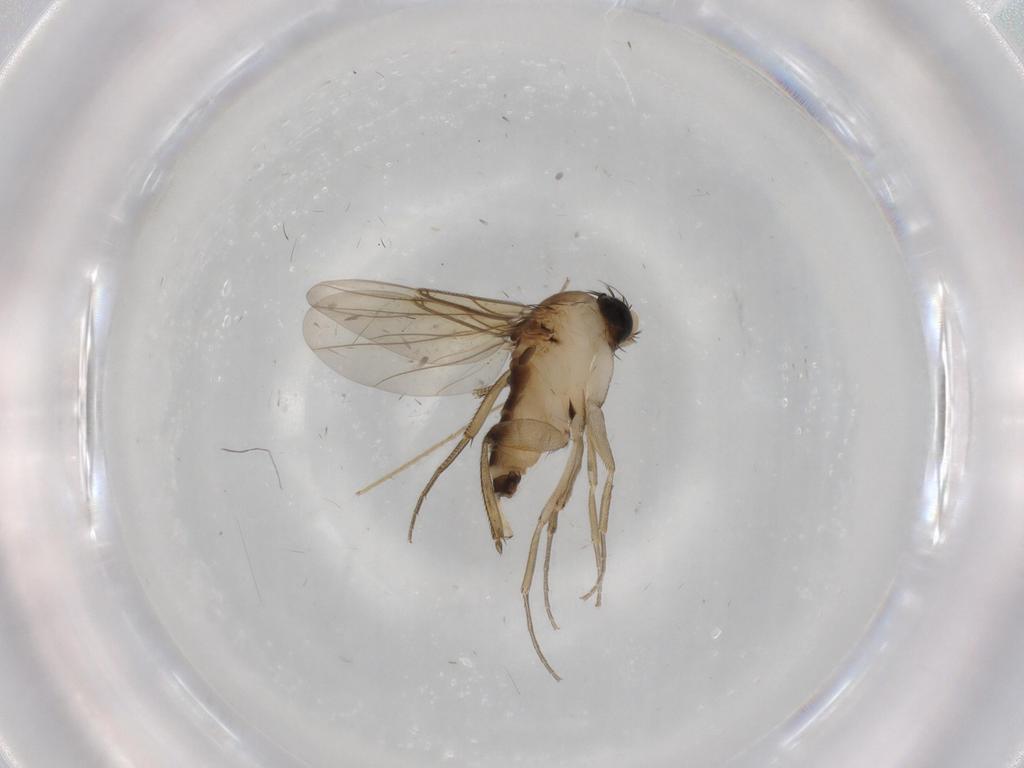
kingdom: Animalia
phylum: Arthropoda
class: Insecta
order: Diptera
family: Phoridae
